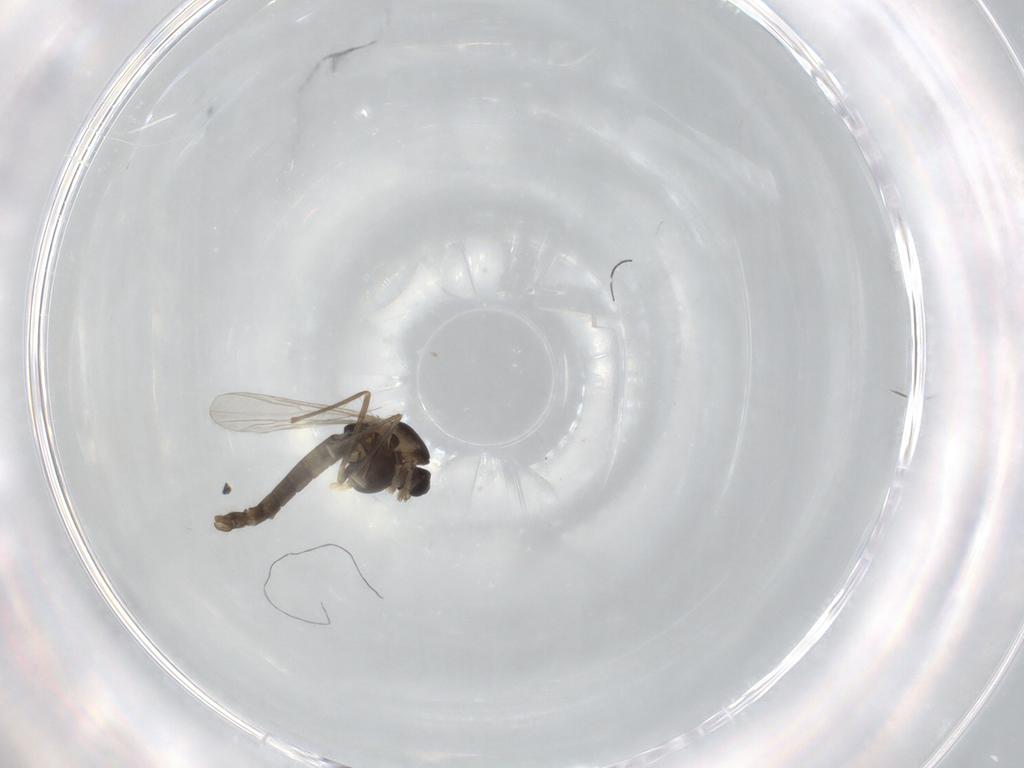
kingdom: Animalia
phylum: Arthropoda
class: Insecta
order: Diptera
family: Chironomidae
